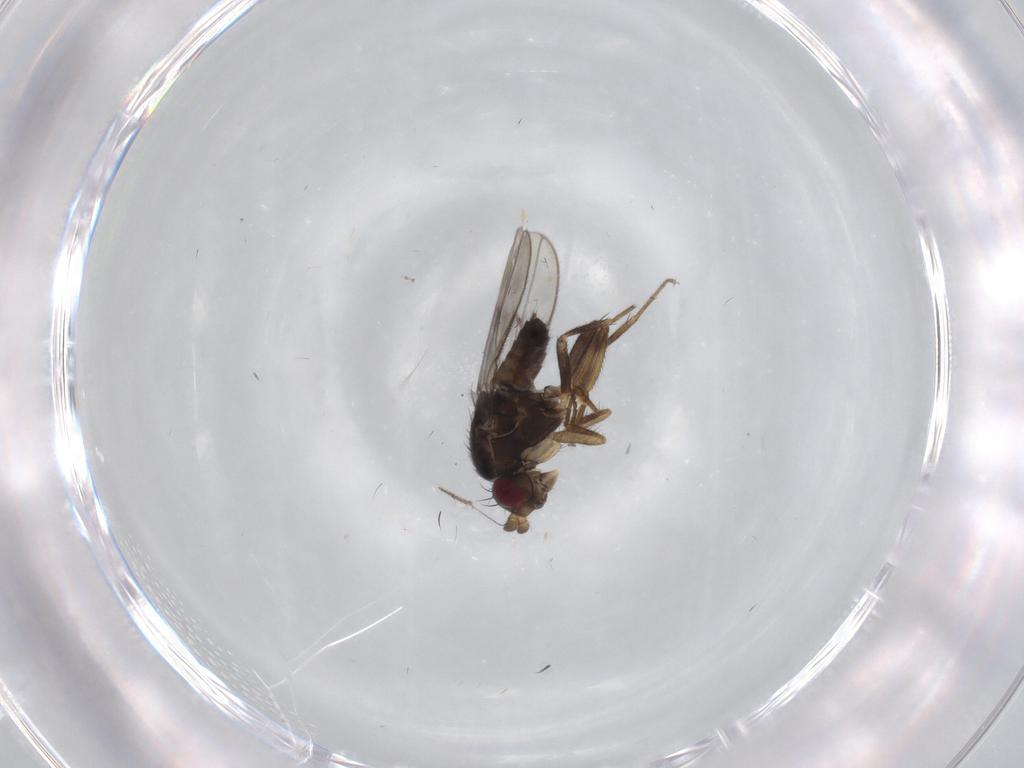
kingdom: Animalia
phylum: Arthropoda
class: Insecta
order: Diptera
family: Sphaeroceridae
